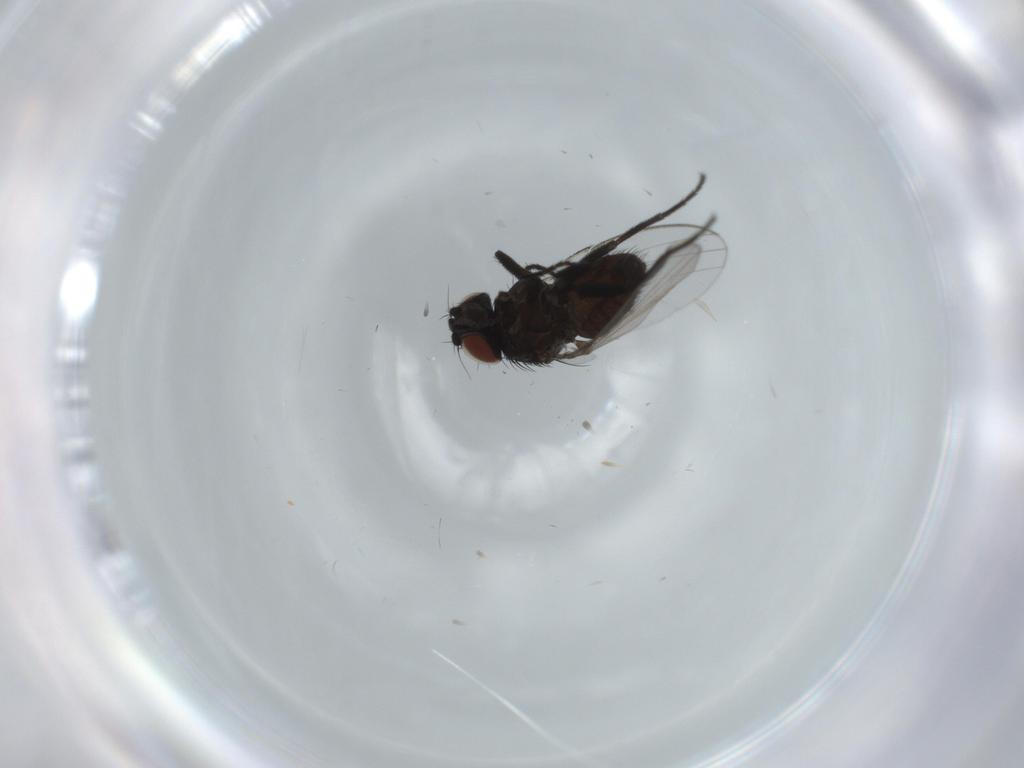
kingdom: Animalia
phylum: Arthropoda
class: Insecta
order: Diptera
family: Milichiidae
